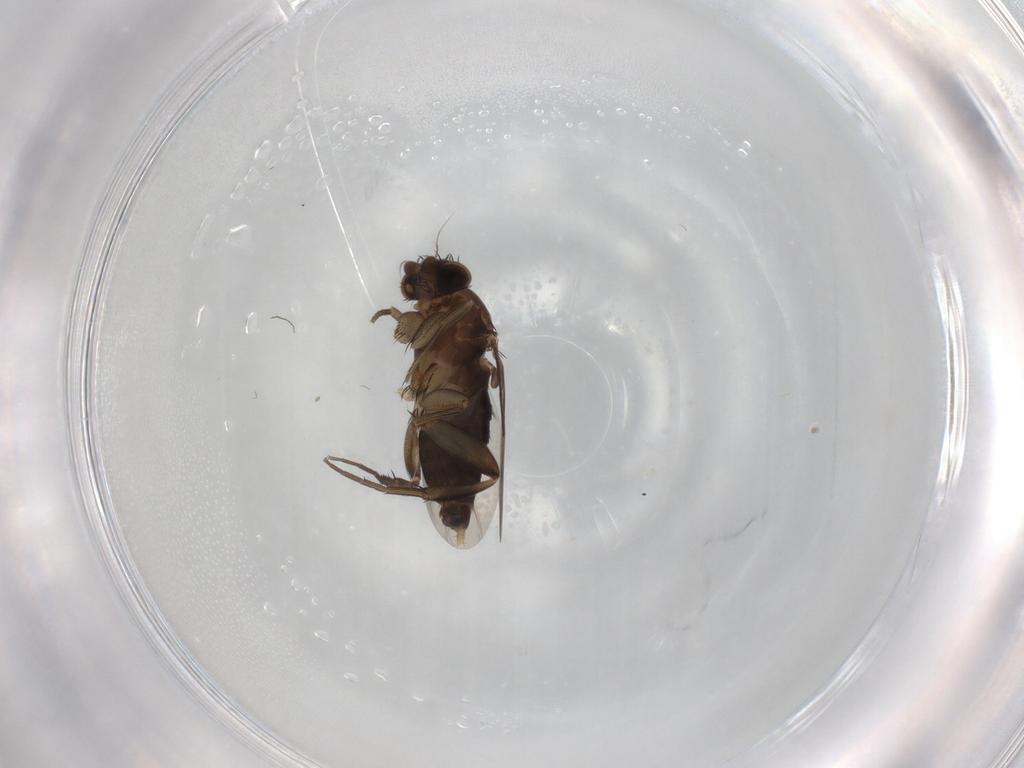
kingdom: Animalia
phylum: Arthropoda
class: Insecta
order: Diptera
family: Phoridae
